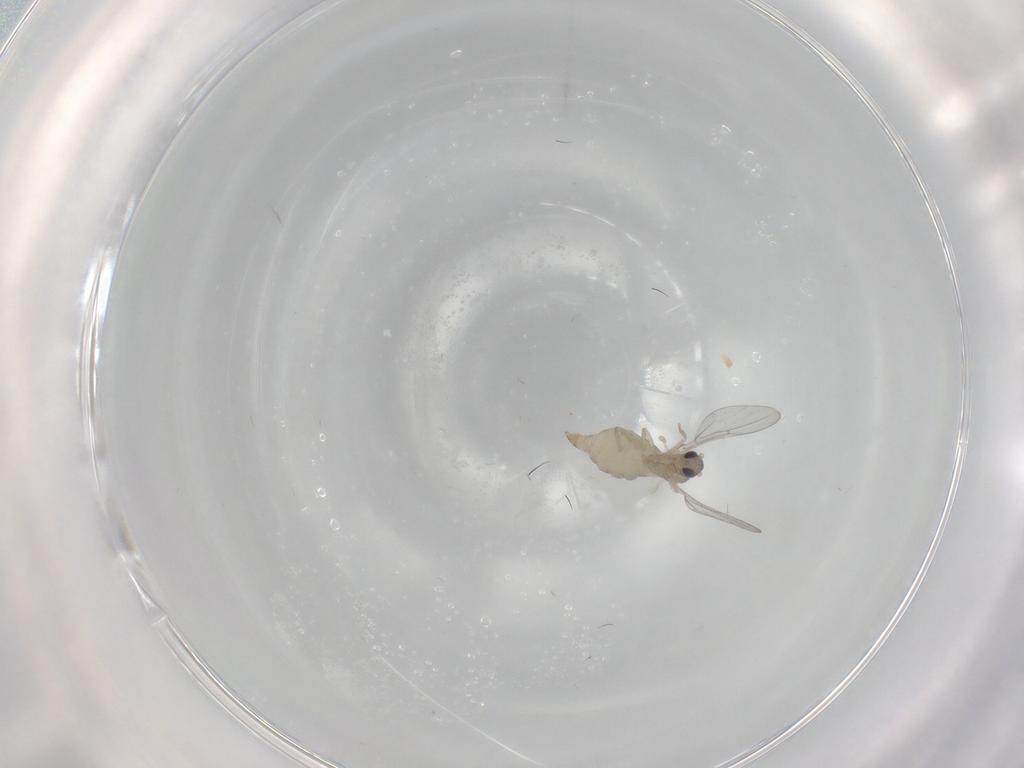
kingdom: Animalia
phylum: Arthropoda
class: Insecta
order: Diptera
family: Cecidomyiidae
